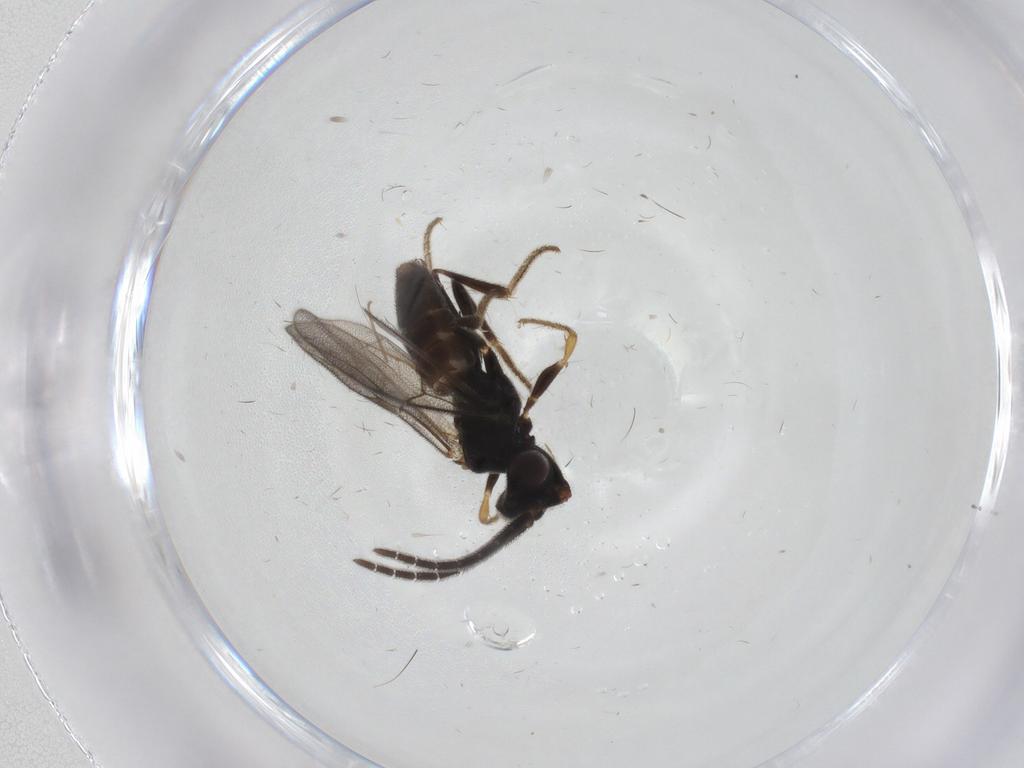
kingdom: Animalia
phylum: Arthropoda
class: Insecta
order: Hymenoptera
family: Dryinidae
